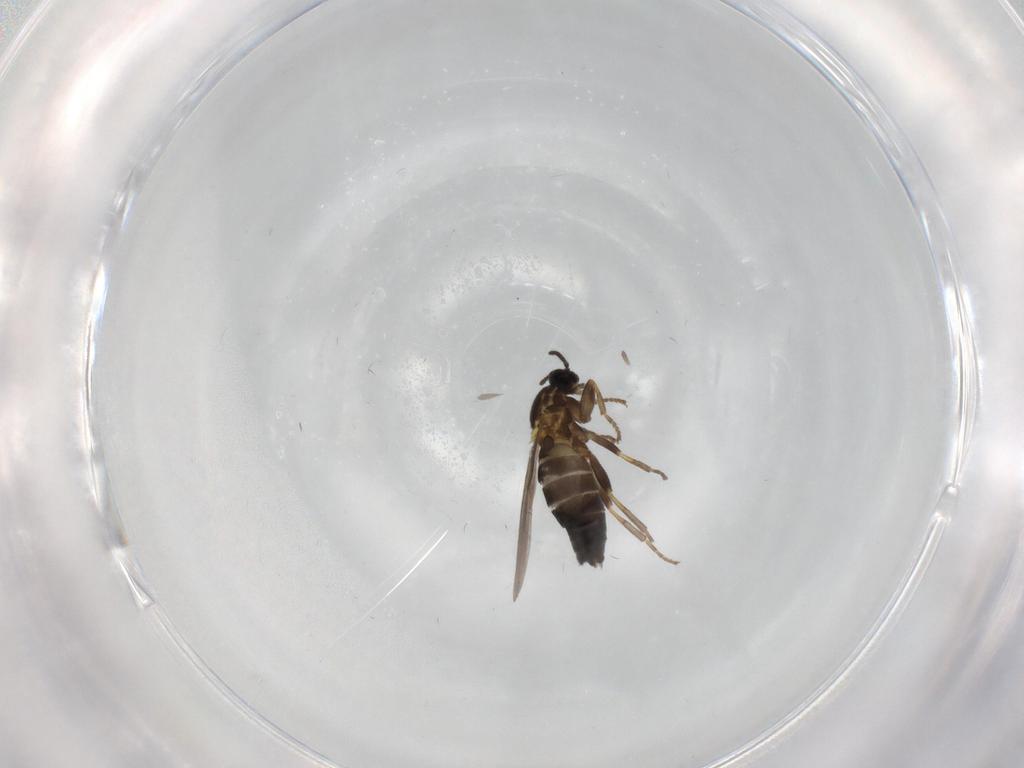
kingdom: Animalia
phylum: Arthropoda
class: Insecta
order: Diptera
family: Scatopsidae
